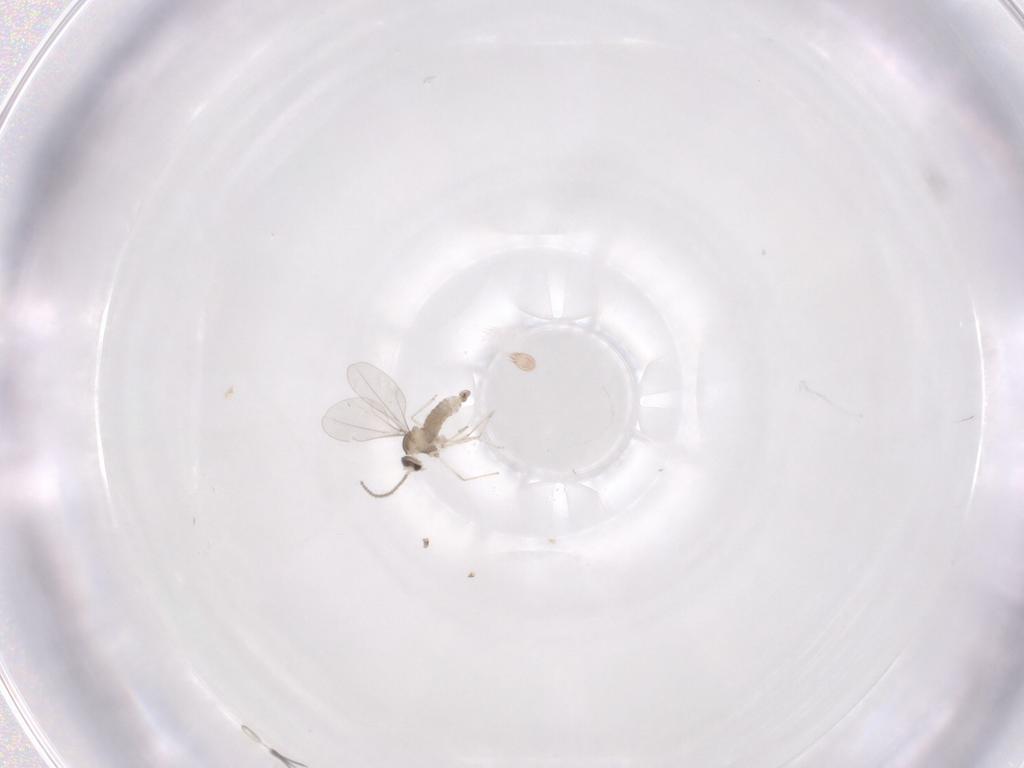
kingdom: Animalia
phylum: Arthropoda
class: Insecta
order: Diptera
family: Cecidomyiidae
